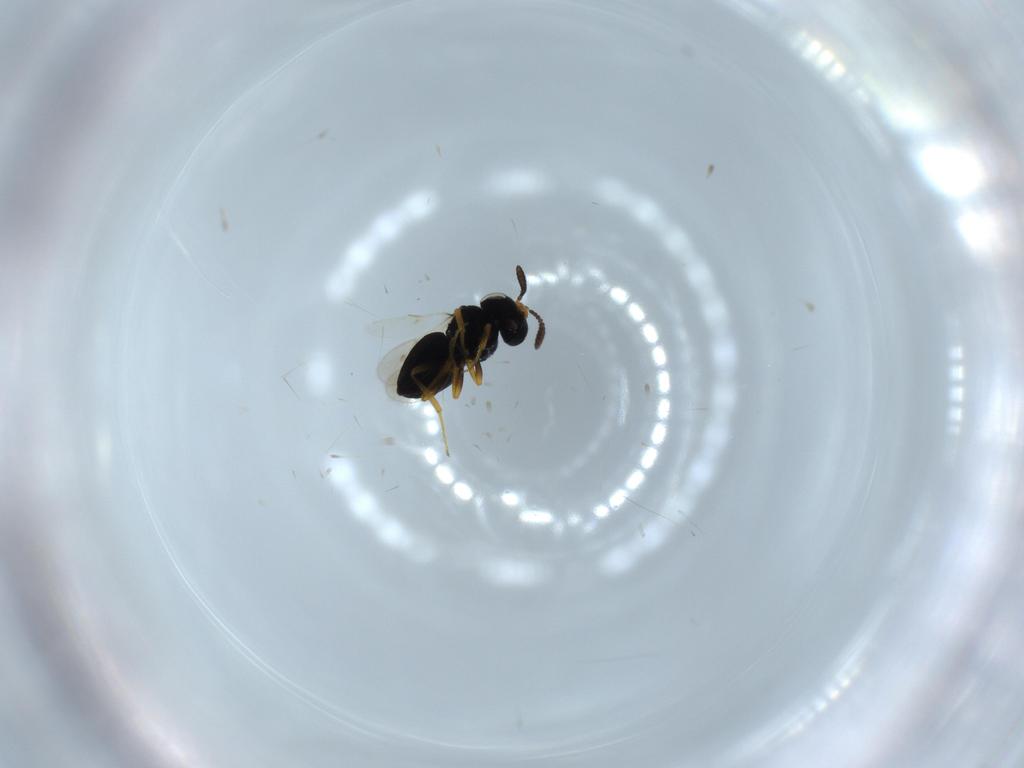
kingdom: Animalia
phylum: Arthropoda
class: Insecta
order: Hymenoptera
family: Scelionidae
